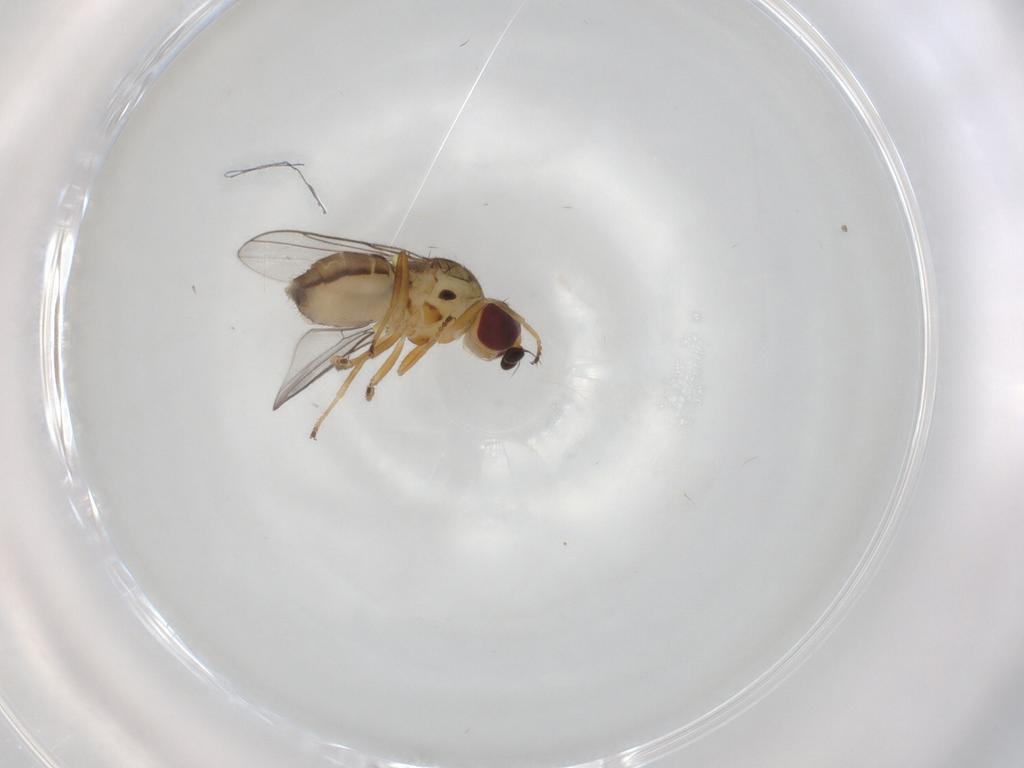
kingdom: Animalia
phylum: Arthropoda
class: Insecta
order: Diptera
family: Chloropidae
